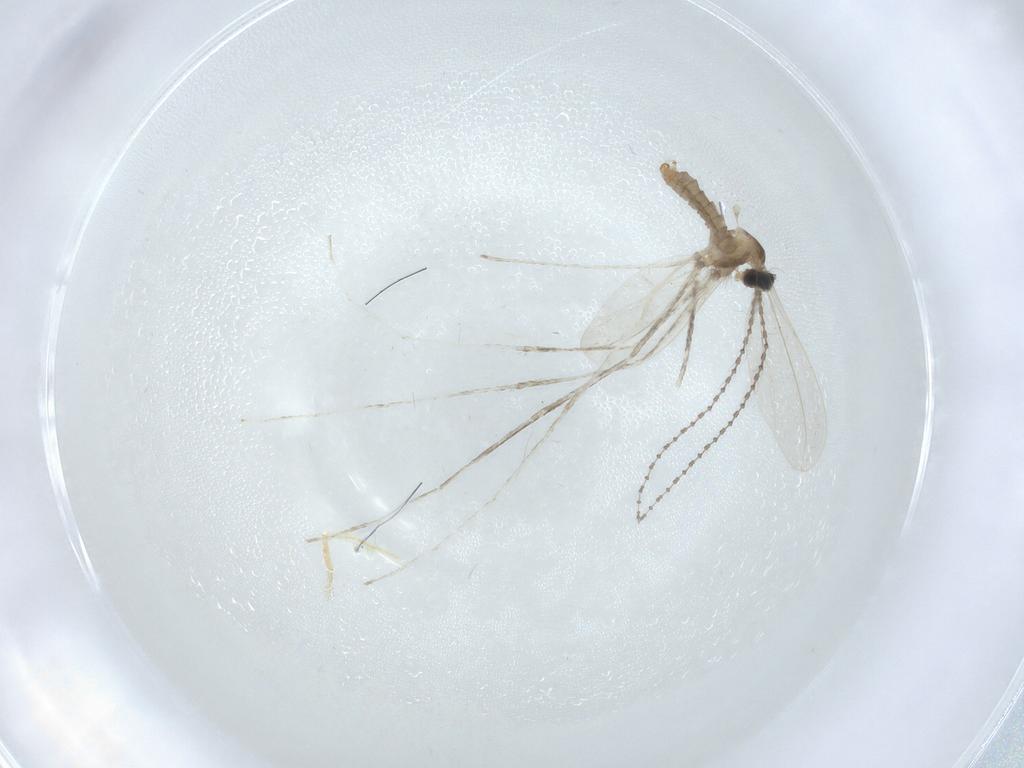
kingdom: Animalia
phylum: Arthropoda
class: Insecta
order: Diptera
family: Cecidomyiidae
